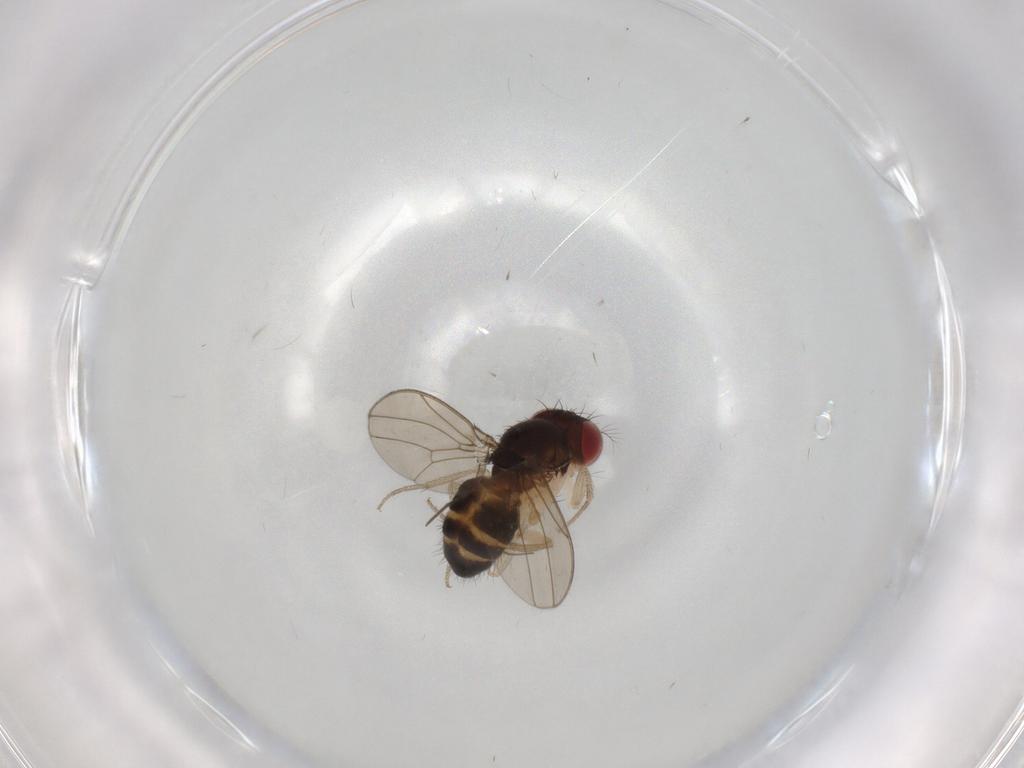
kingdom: Animalia
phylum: Arthropoda
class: Insecta
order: Diptera
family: Drosophilidae
